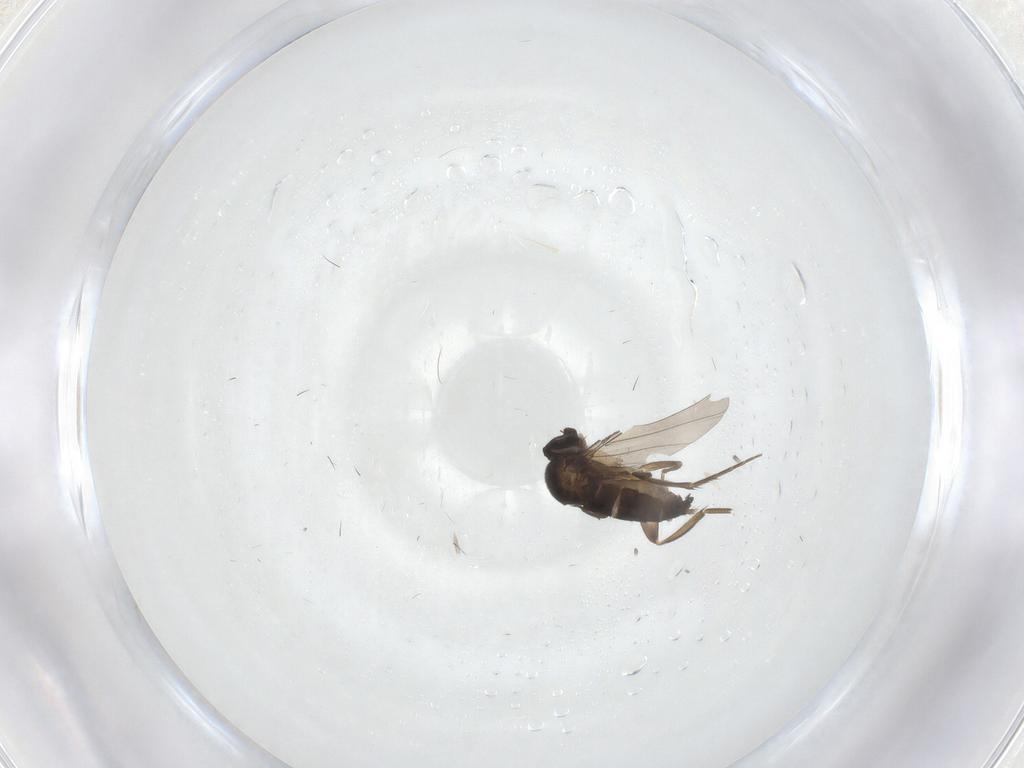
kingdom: Animalia
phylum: Arthropoda
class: Insecta
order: Diptera
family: Phoridae
